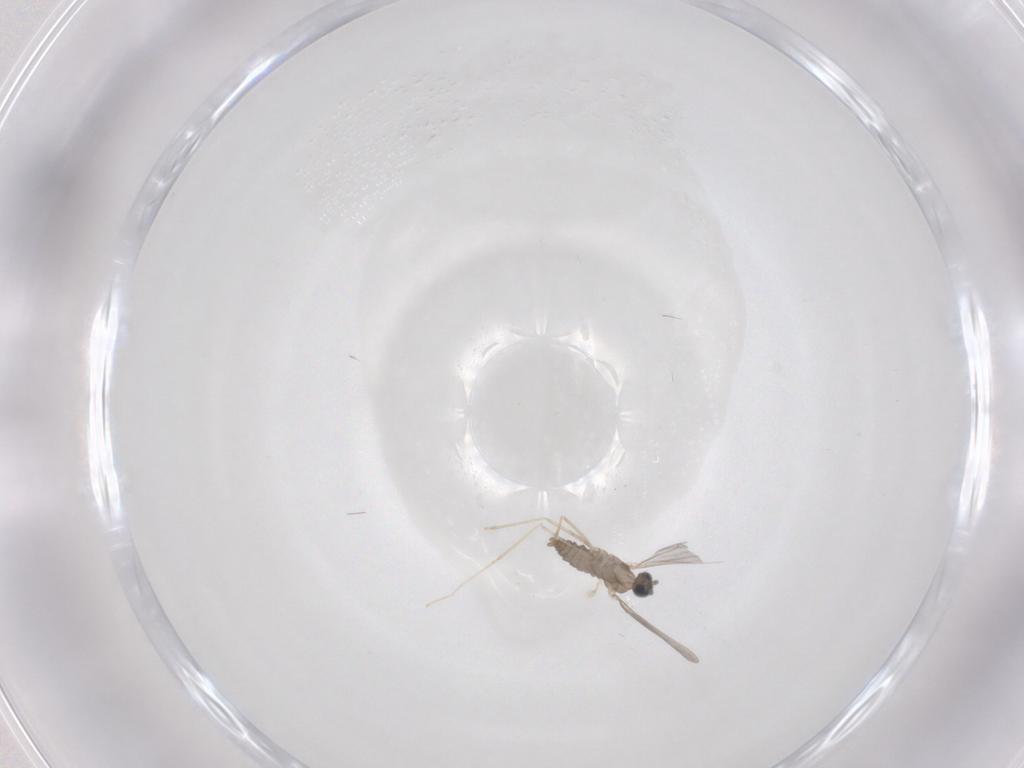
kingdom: Animalia
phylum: Arthropoda
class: Insecta
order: Diptera
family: Cecidomyiidae
